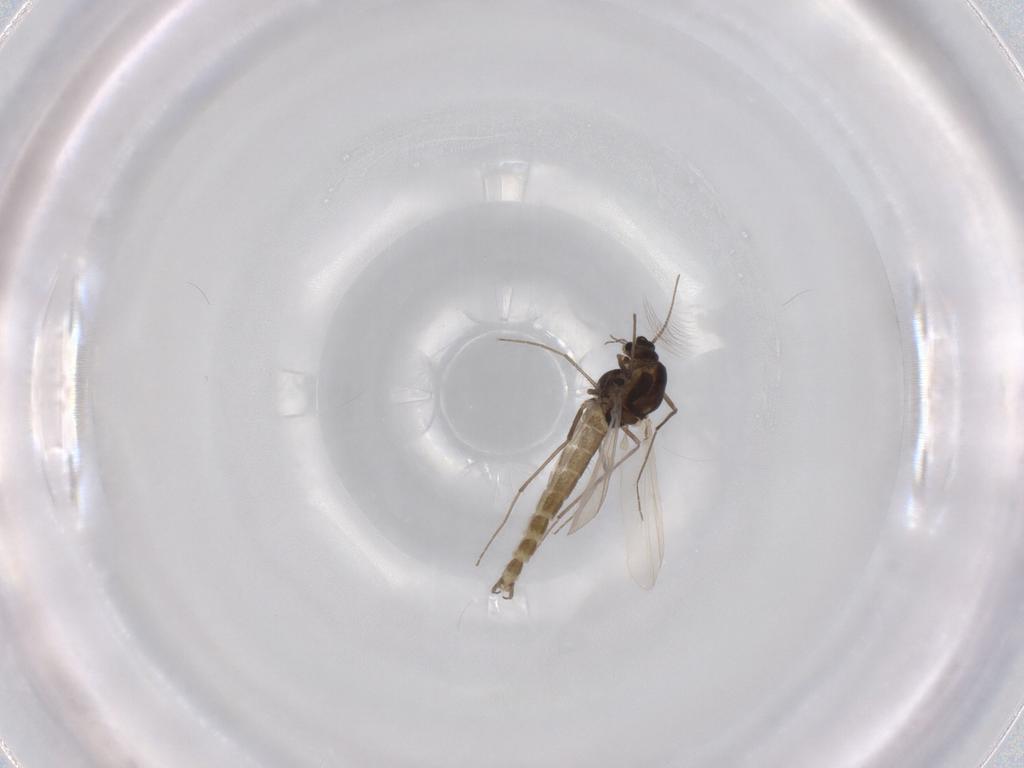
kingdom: Animalia
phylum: Arthropoda
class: Insecta
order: Diptera
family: Chironomidae
